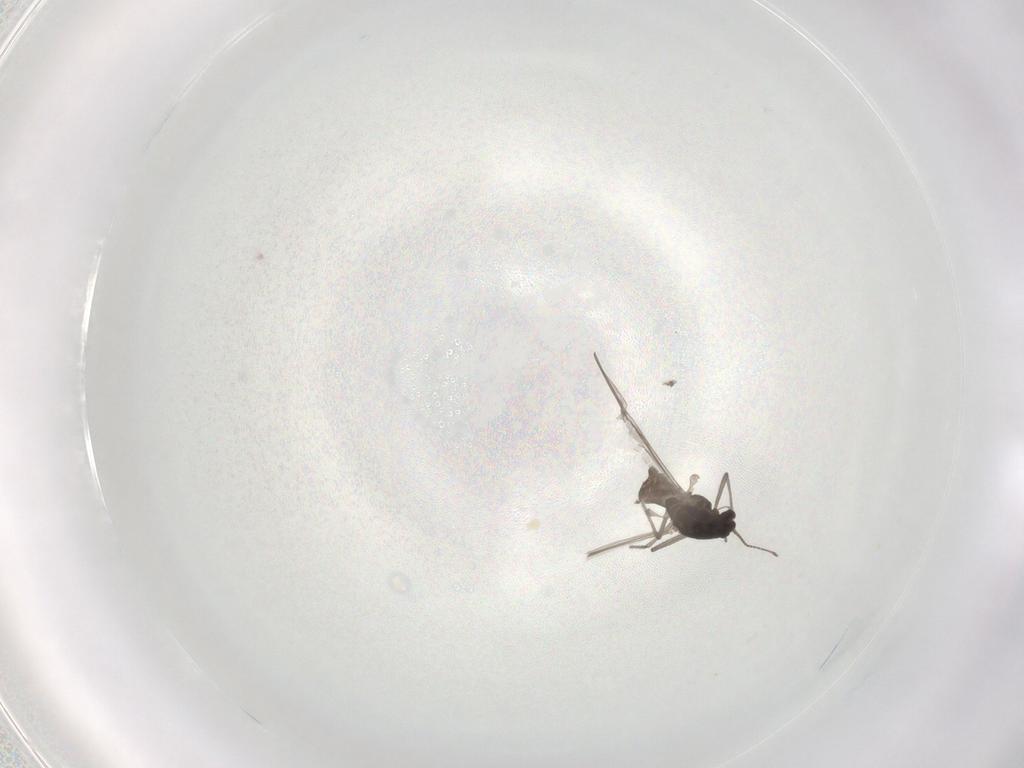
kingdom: Animalia
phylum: Arthropoda
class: Insecta
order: Diptera
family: Chironomidae
